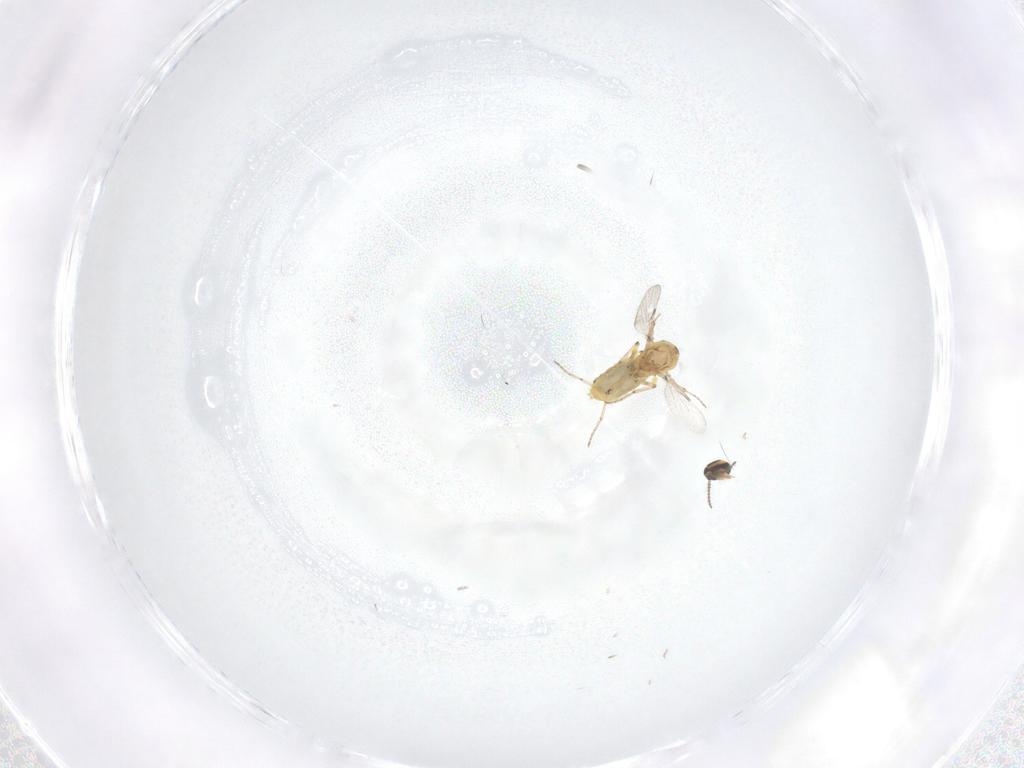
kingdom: Animalia
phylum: Arthropoda
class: Insecta
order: Diptera
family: Ceratopogonidae
